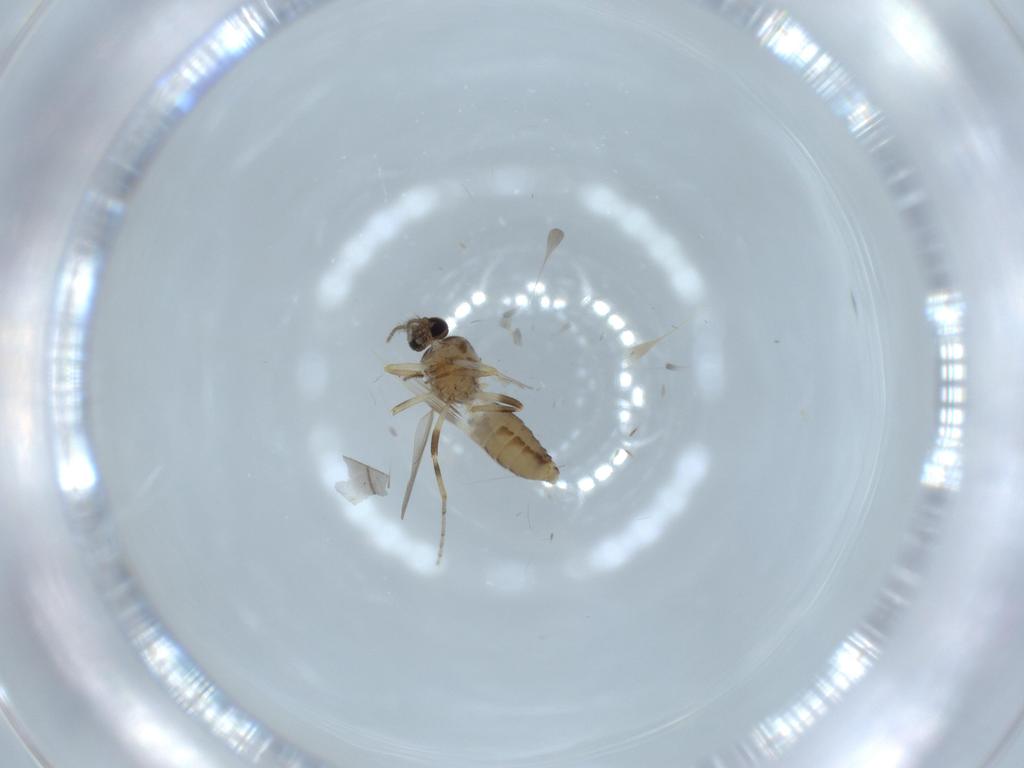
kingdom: Animalia
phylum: Arthropoda
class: Insecta
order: Diptera
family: Ceratopogonidae
